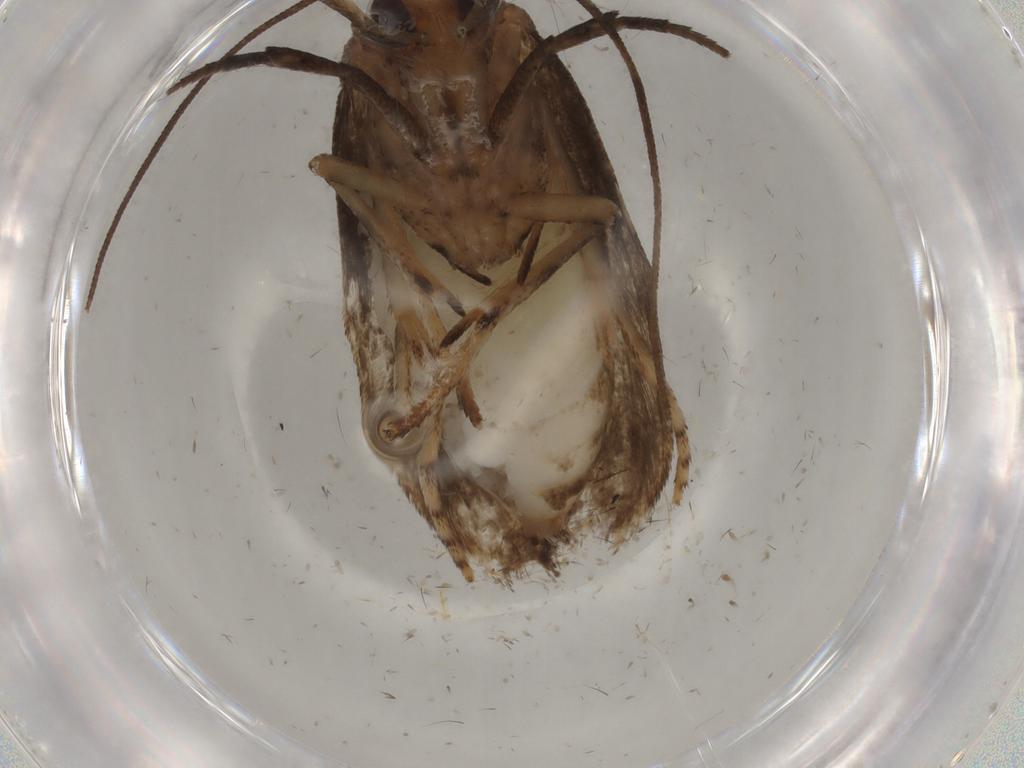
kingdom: Animalia
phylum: Arthropoda
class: Insecta
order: Lepidoptera
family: Yponomeutidae
